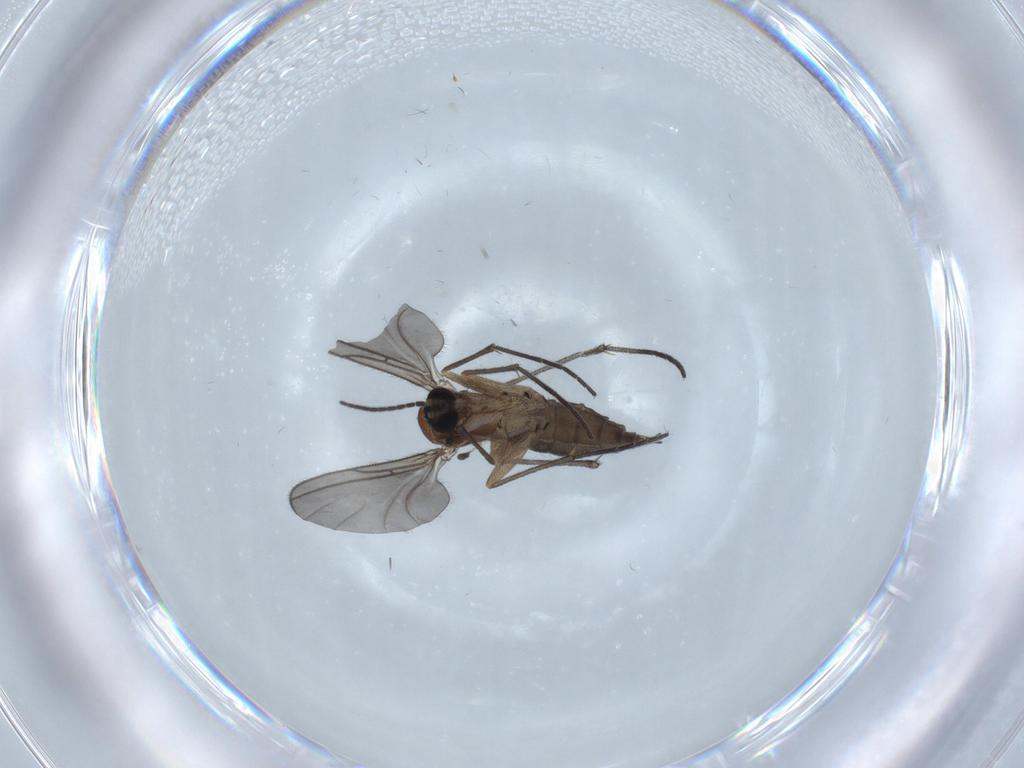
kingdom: Animalia
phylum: Arthropoda
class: Insecta
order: Diptera
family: Sciaridae
